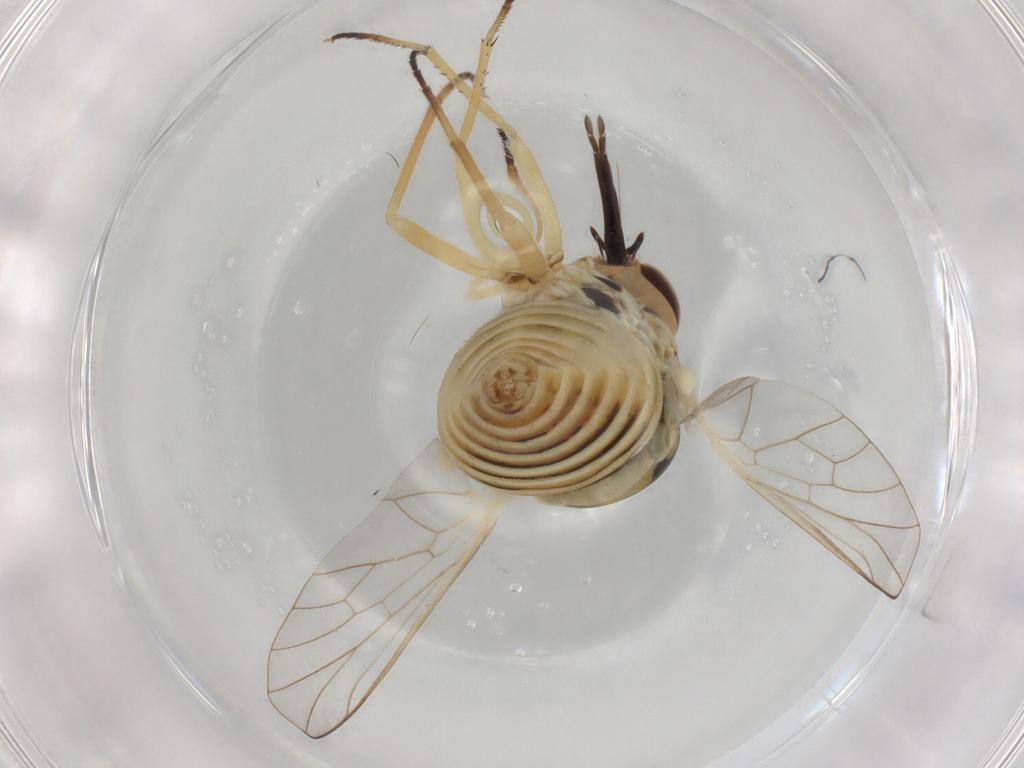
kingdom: Animalia
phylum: Arthropoda
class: Insecta
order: Diptera
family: Bombyliidae
